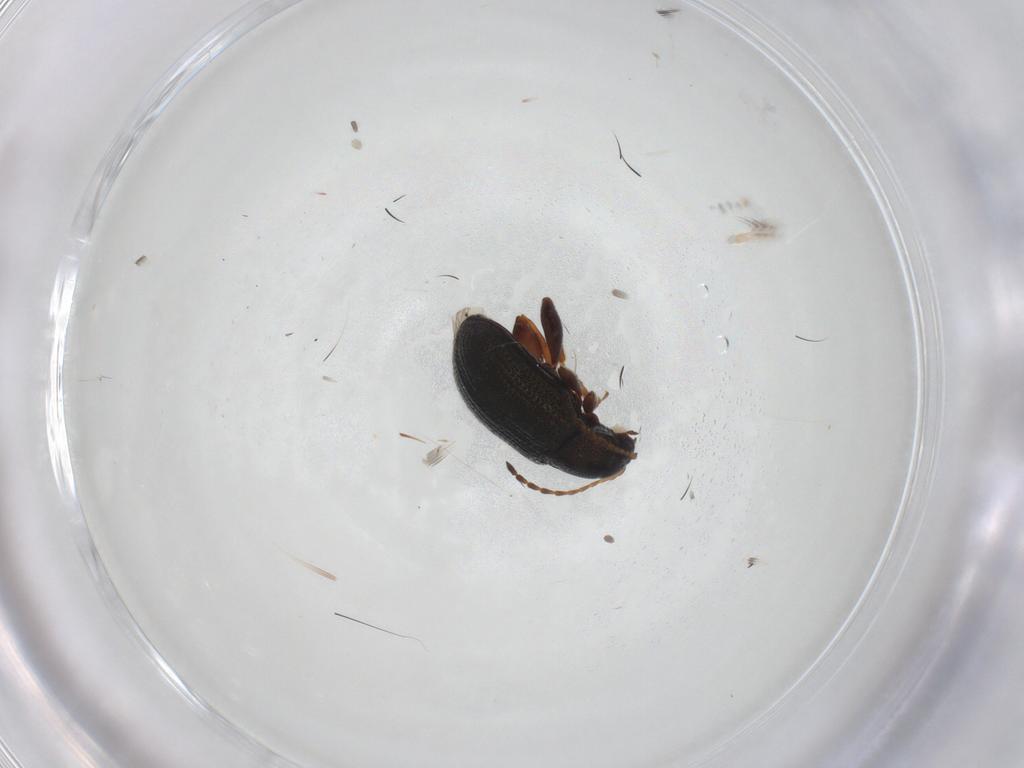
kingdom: Animalia
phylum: Arthropoda
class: Insecta
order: Coleoptera
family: Chrysomelidae
